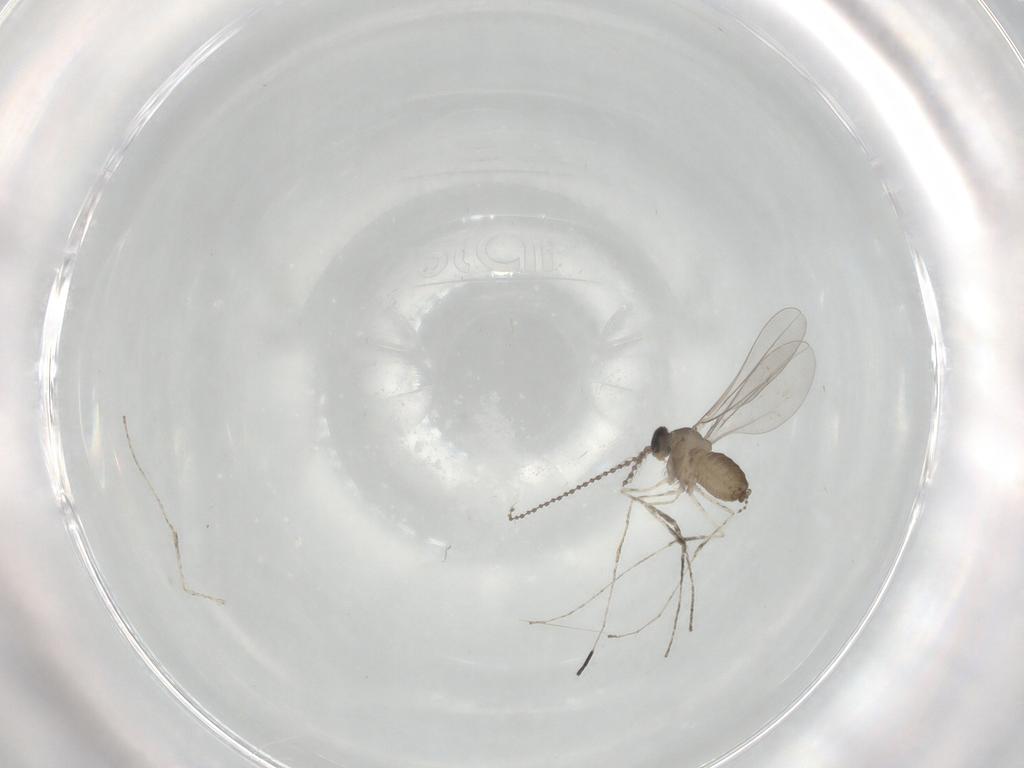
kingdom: Animalia
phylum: Arthropoda
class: Insecta
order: Diptera
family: Cecidomyiidae
